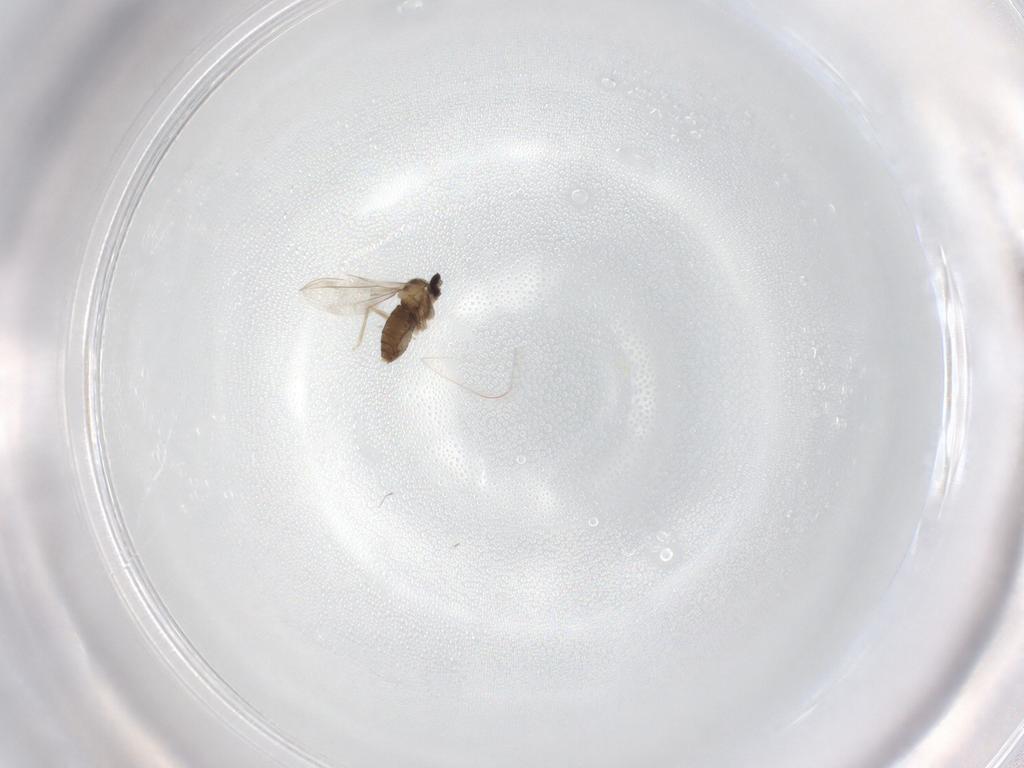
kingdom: Animalia
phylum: Arthropoda
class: Insecta
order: Diptera
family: Cecidomyiidae
